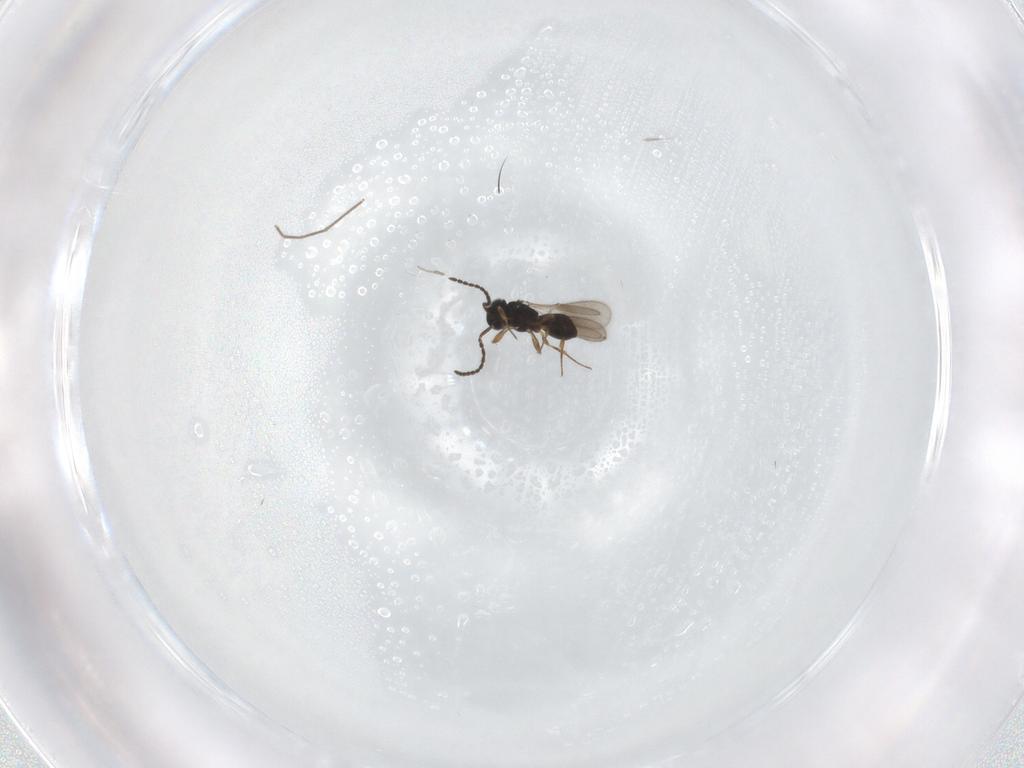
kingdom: Animalia
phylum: Arthropoda
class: Insecta
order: Hymenoptera
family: Scelionidae
